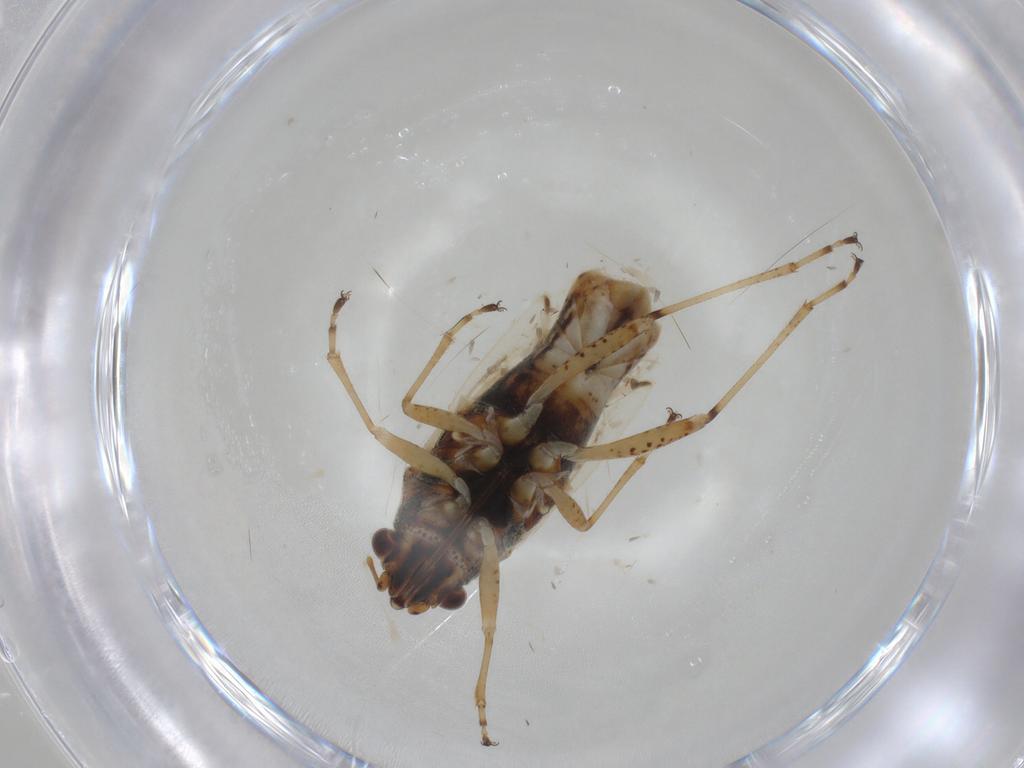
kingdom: Animalia
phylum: Arthropoda
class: Insecta
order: Hemiptera
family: Lygaeidae
